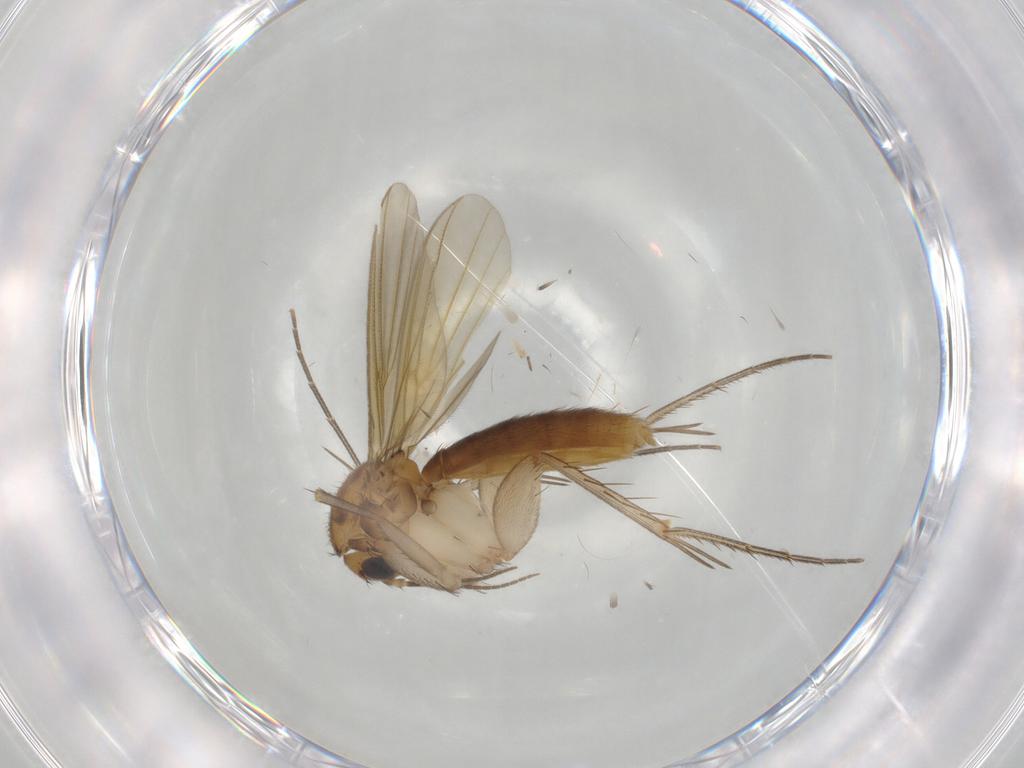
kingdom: Animalia
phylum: Arthropoda
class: Insecta
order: Diptera
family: Mycetophilidae
